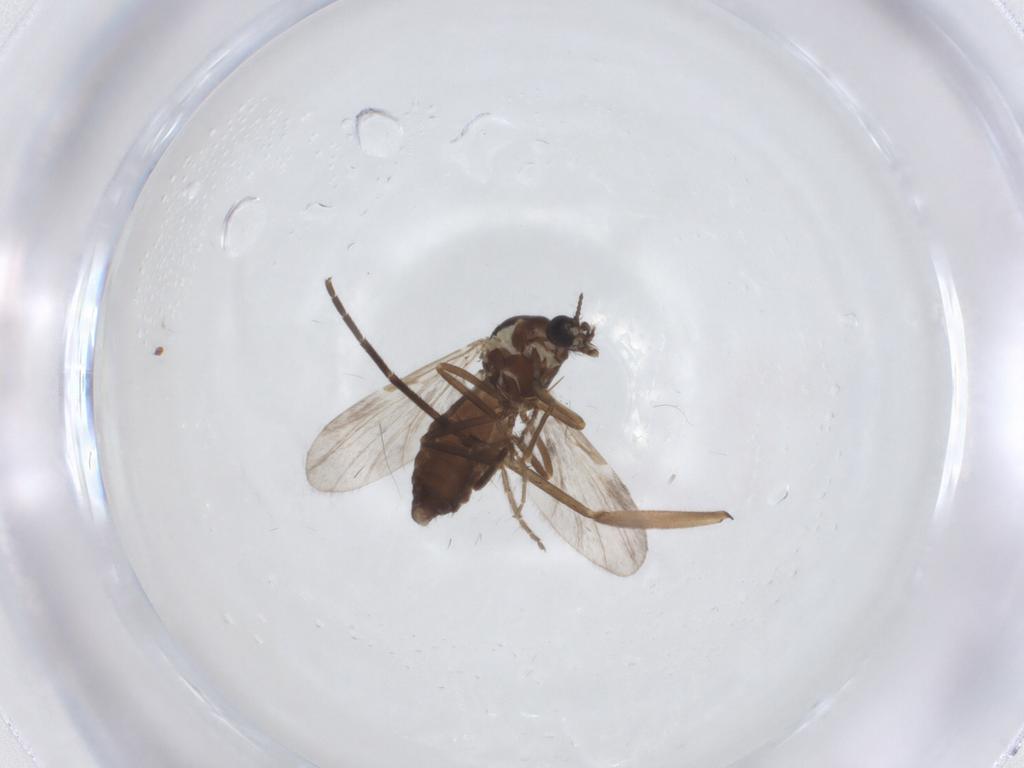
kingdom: Animalia
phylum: Arthropoda
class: Insecta
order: Diptera
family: Ceratopogonidae
